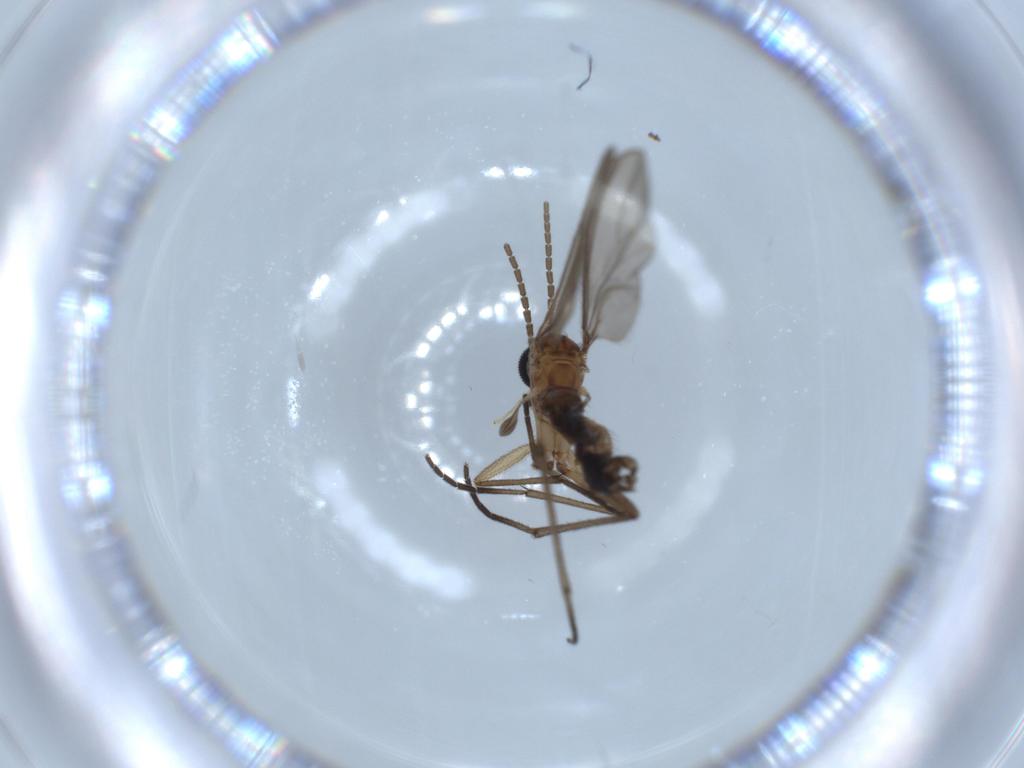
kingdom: Animalia
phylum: Arthropoda
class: Insecta
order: Diptera
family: Sciaridae
